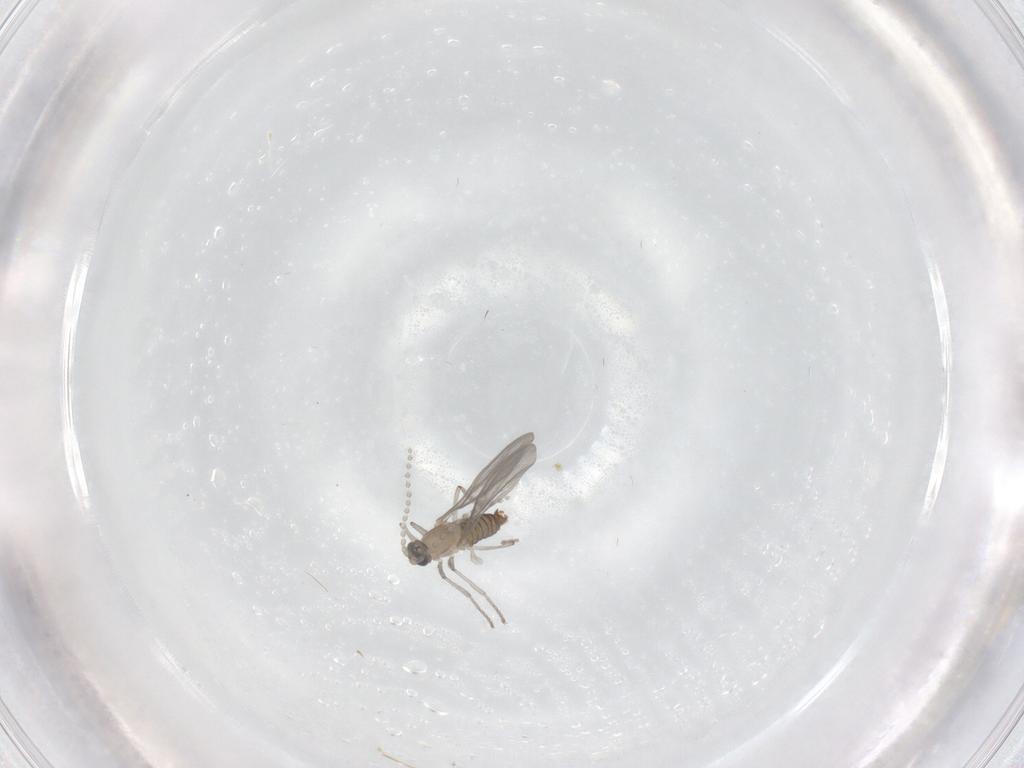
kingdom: Animalia
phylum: Arthropoda
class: Insecta
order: Diptera
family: Cecidomyiidae
